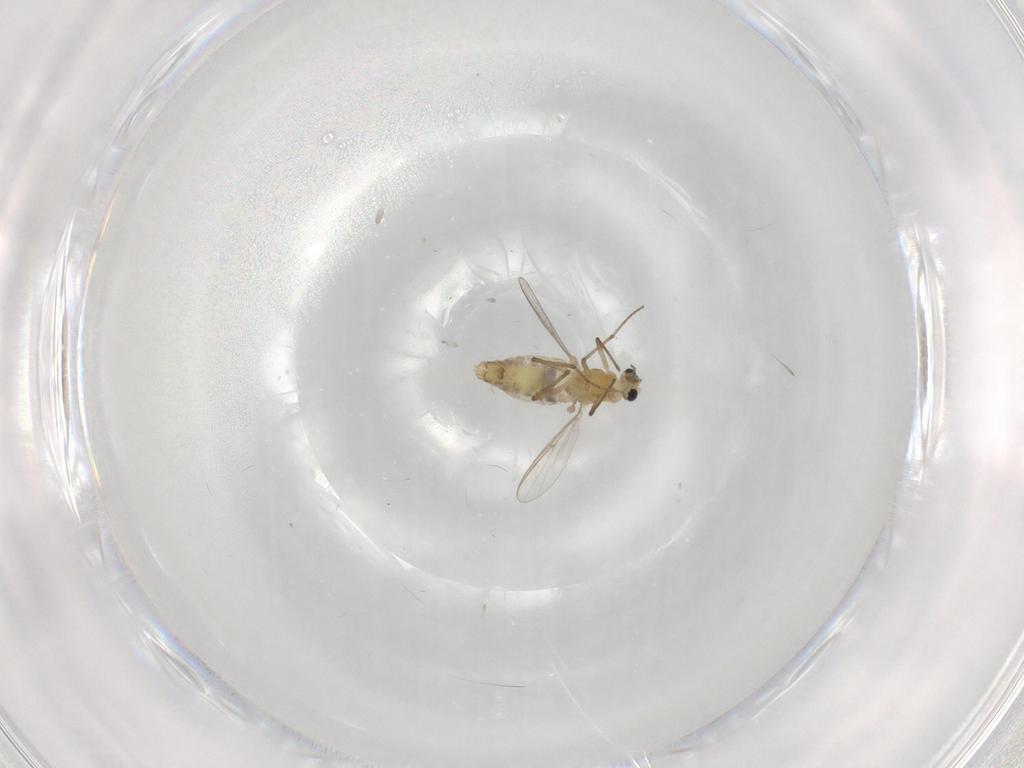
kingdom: Animalia
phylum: Arthropoda
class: Insecta
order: Diptera
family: Chironomidae
